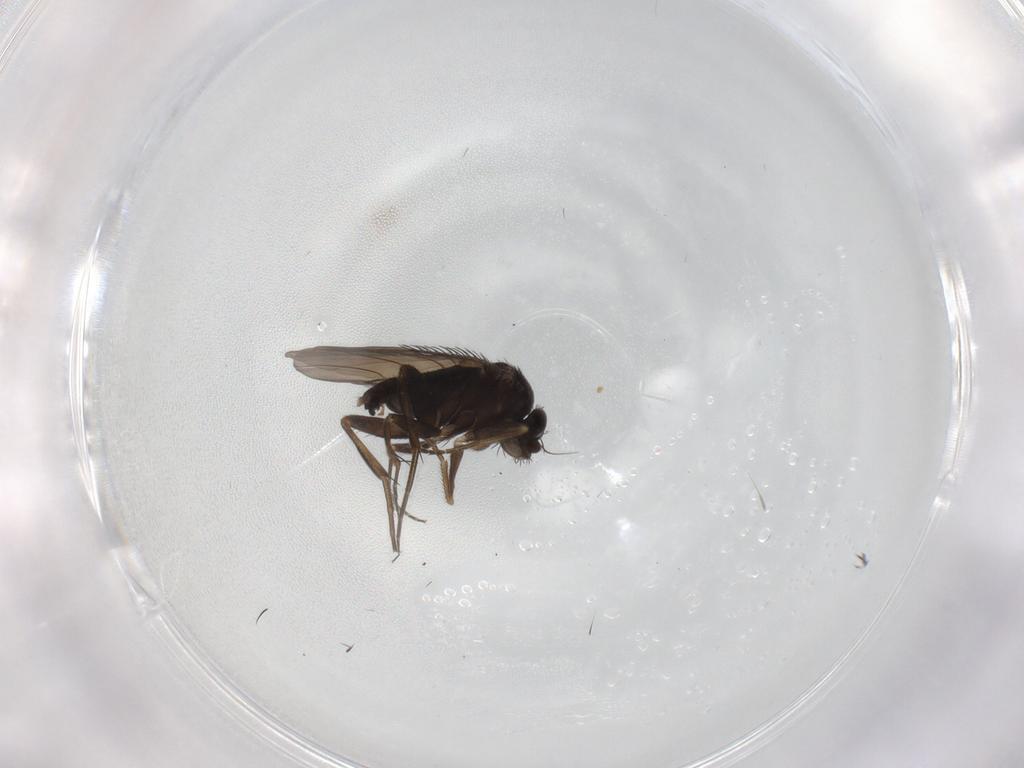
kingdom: Animalia
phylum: Arthropoda
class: Insecta
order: Diptera
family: Phoridae
